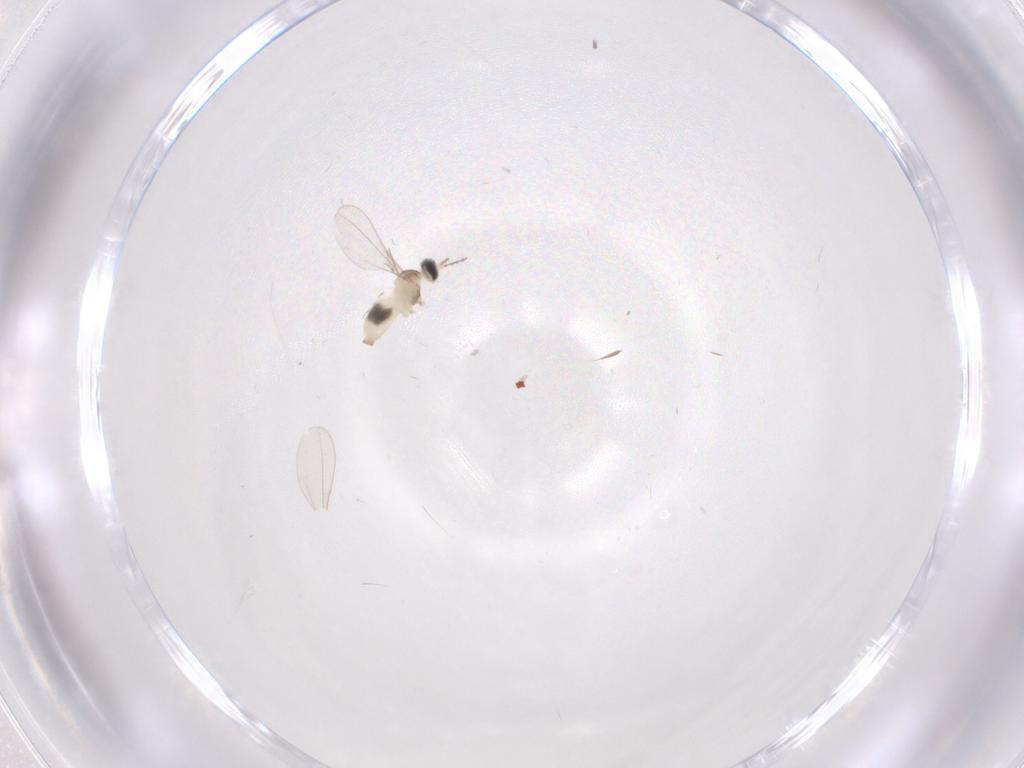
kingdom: Animalia
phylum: Arthropoda
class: Insecta
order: Diptera
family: Cecidomyiidae
